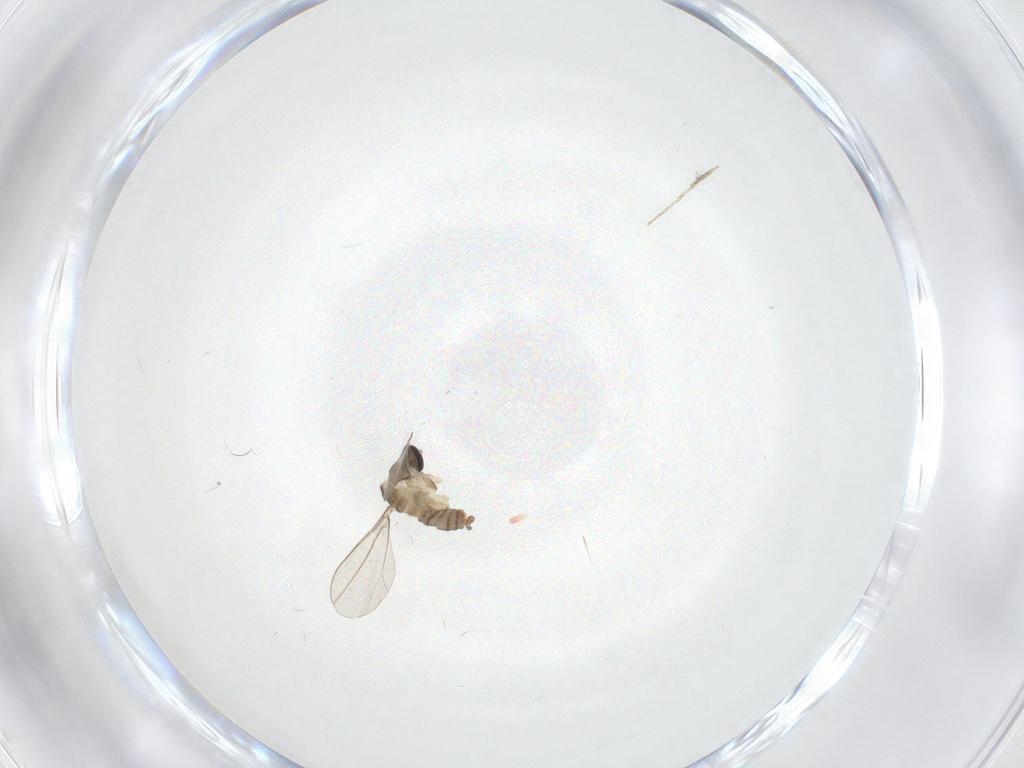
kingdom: Animalia
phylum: Arthropoda
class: Insecta
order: Diptera
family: Cecidomyiidae
